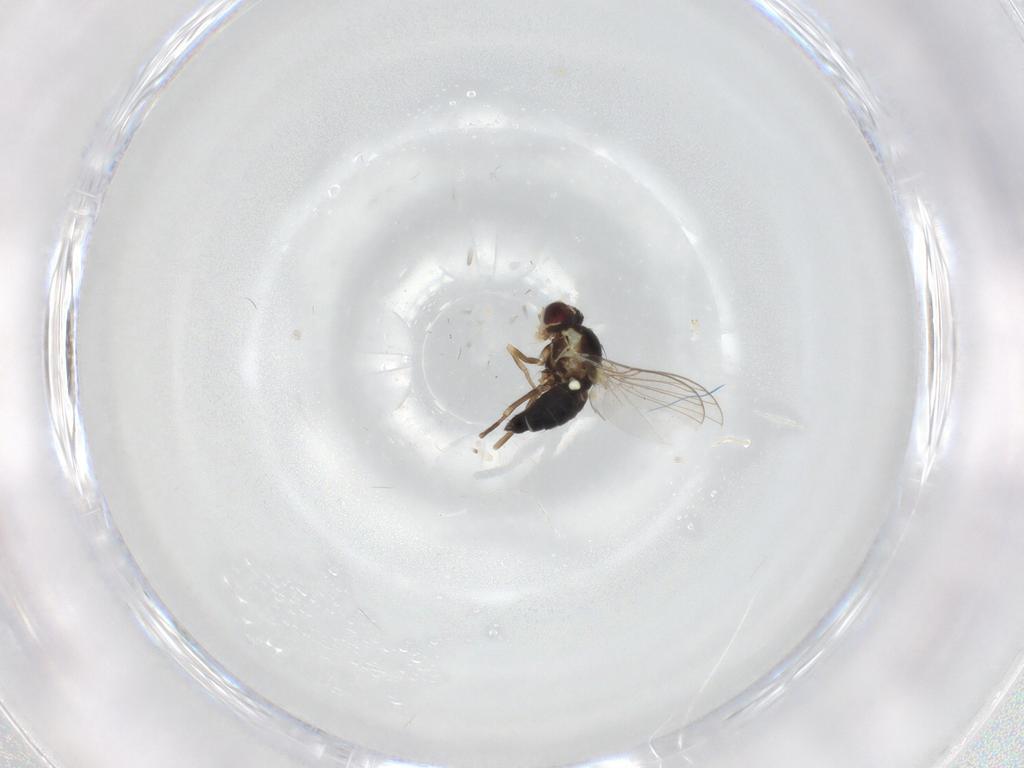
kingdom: Animalia
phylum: Arthropoda
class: Insecta
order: Diptera
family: Agromyzidae
